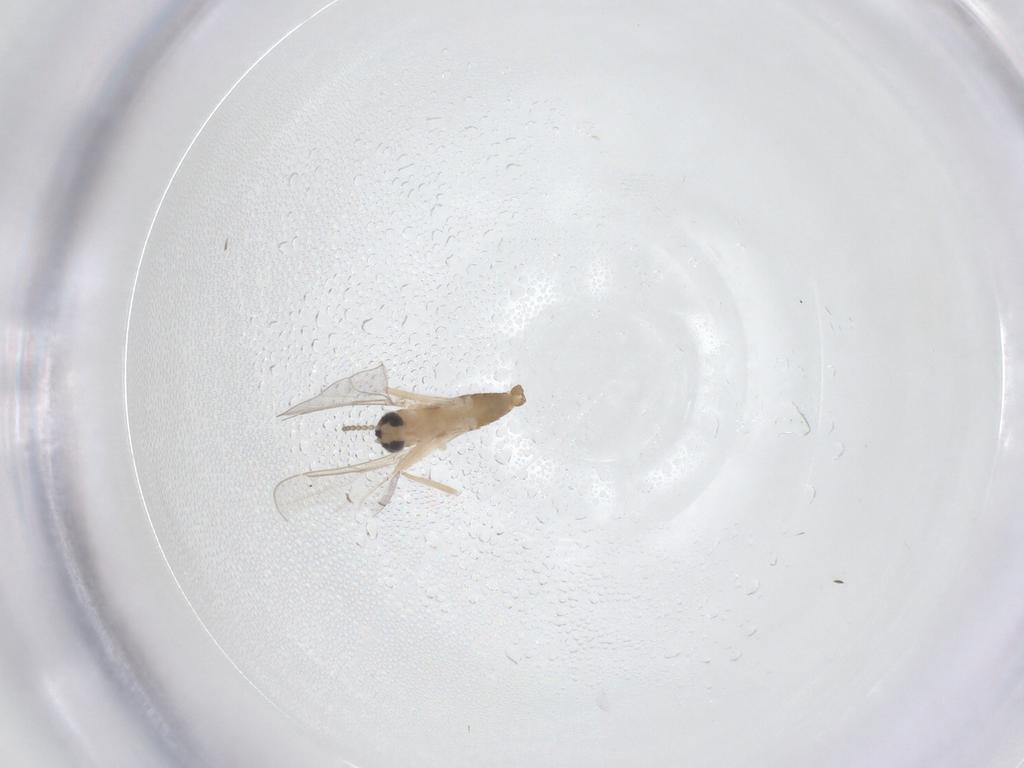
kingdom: Animalia
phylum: Arthropoda
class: Insecta
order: Diptera
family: Cecidomyiidae
